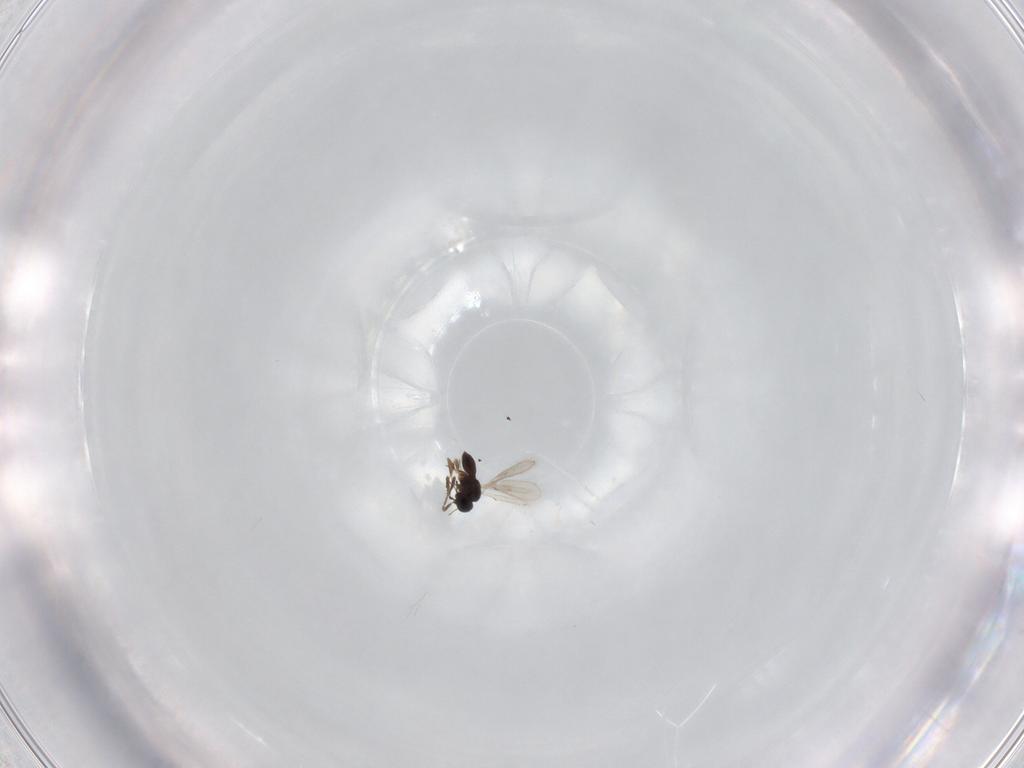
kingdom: Animalia
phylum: Arthropoda
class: Insecta
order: Hymenoptera
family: Scelionidae
